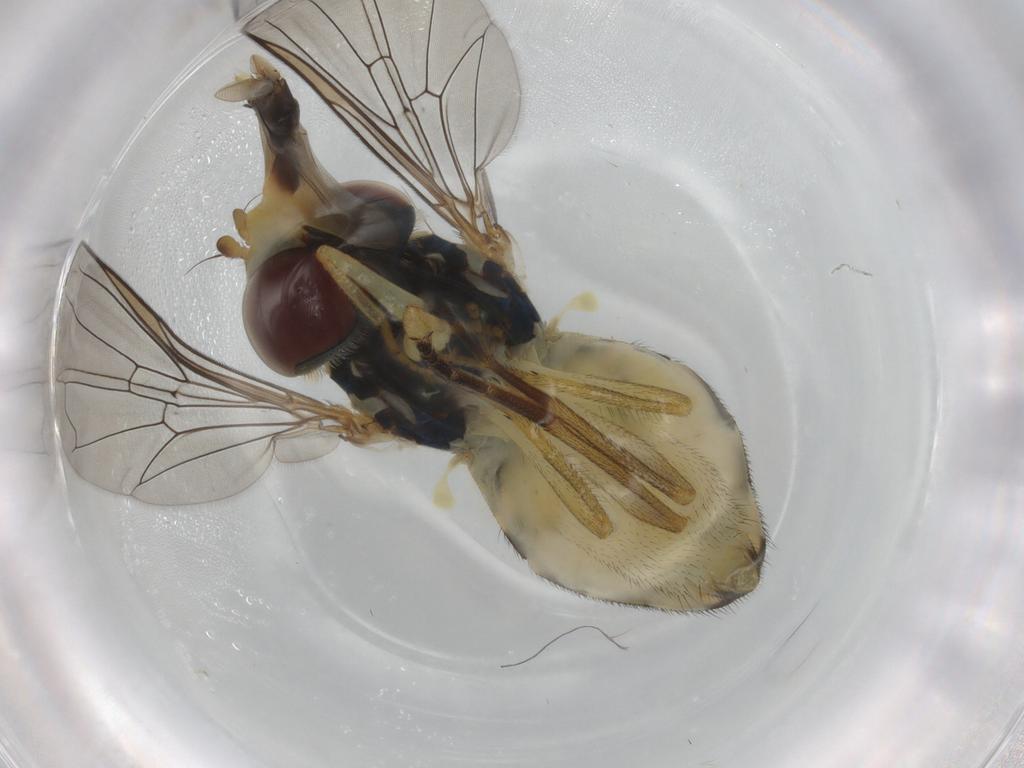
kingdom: Animalia
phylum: Arthropoda
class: Insecta
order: Diptera
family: Syrphidae
